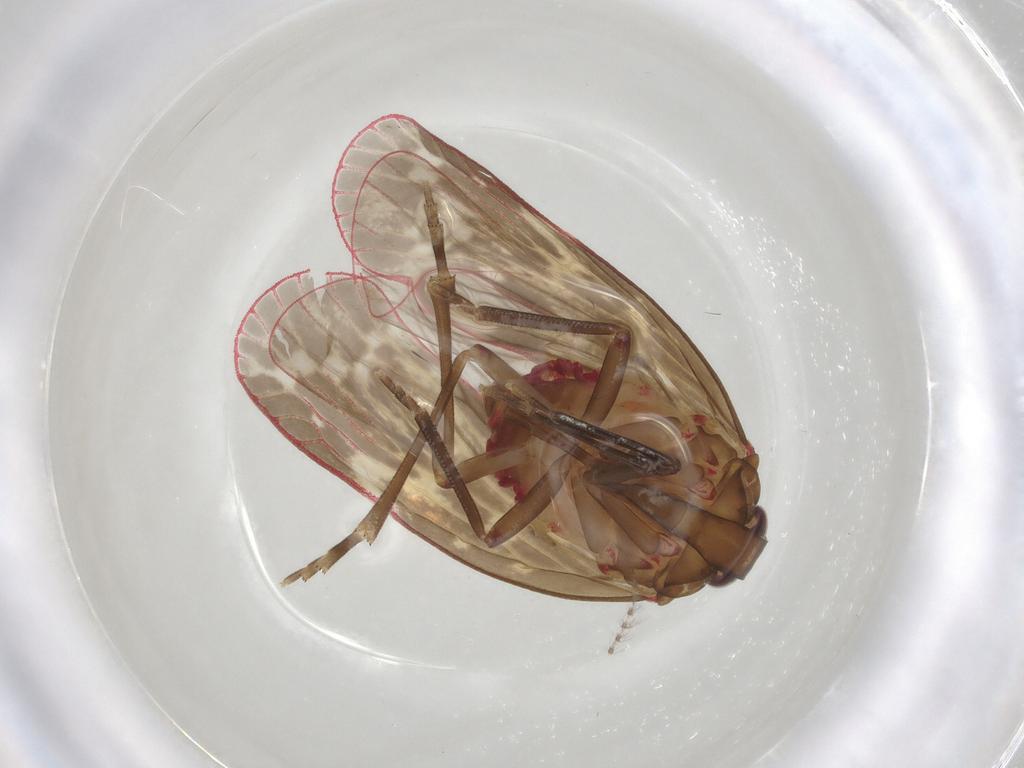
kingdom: Animalia
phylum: Arthropoda
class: Insecta
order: Hemiptera
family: Achilidae
